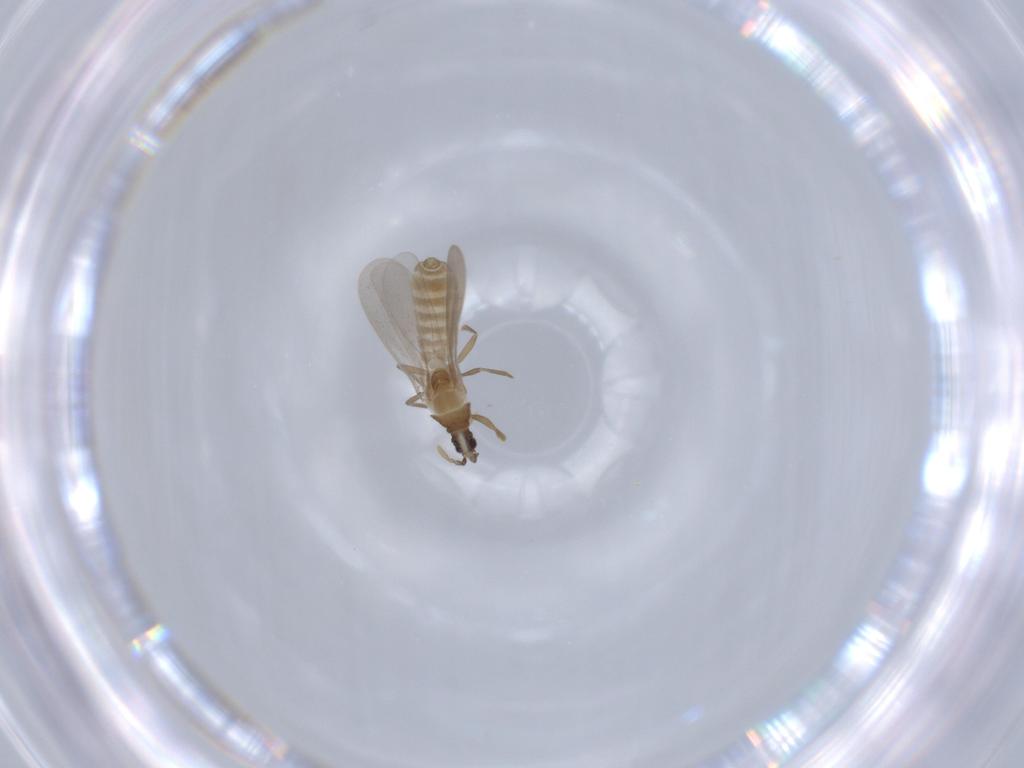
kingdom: Animalia
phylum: Arthropoda
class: Insecta
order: Hemiptera
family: Enicocephalidae
